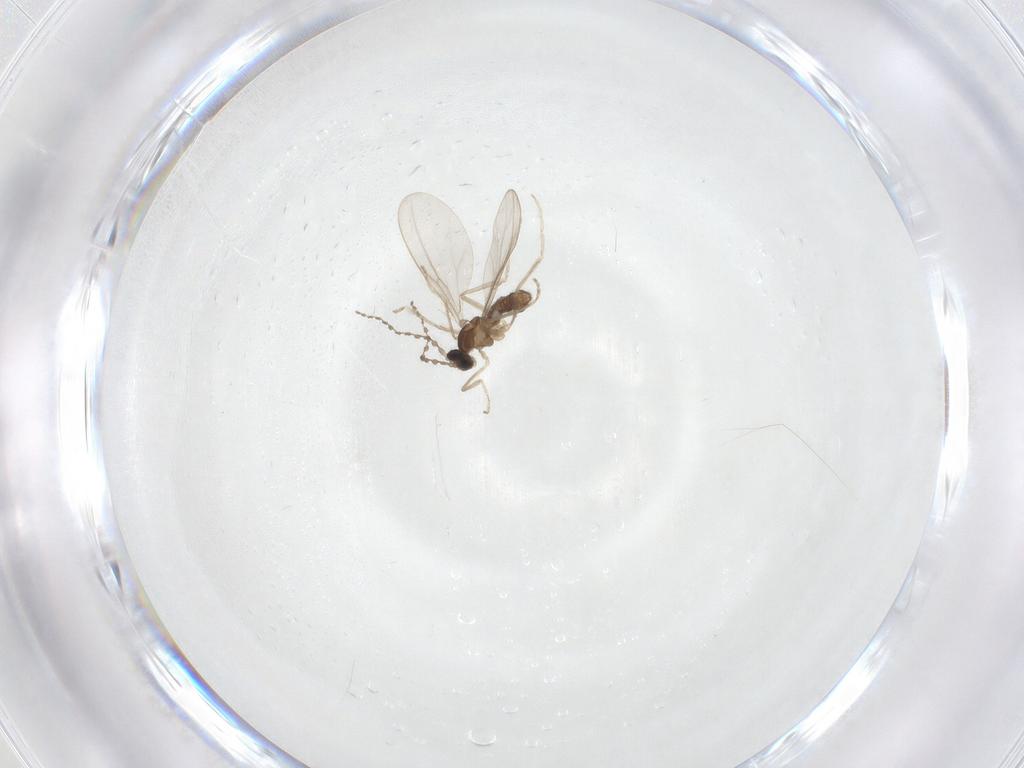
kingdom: Animalia
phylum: Arthropoda
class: Insecta
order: Diptera
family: Cecidomyiidae
